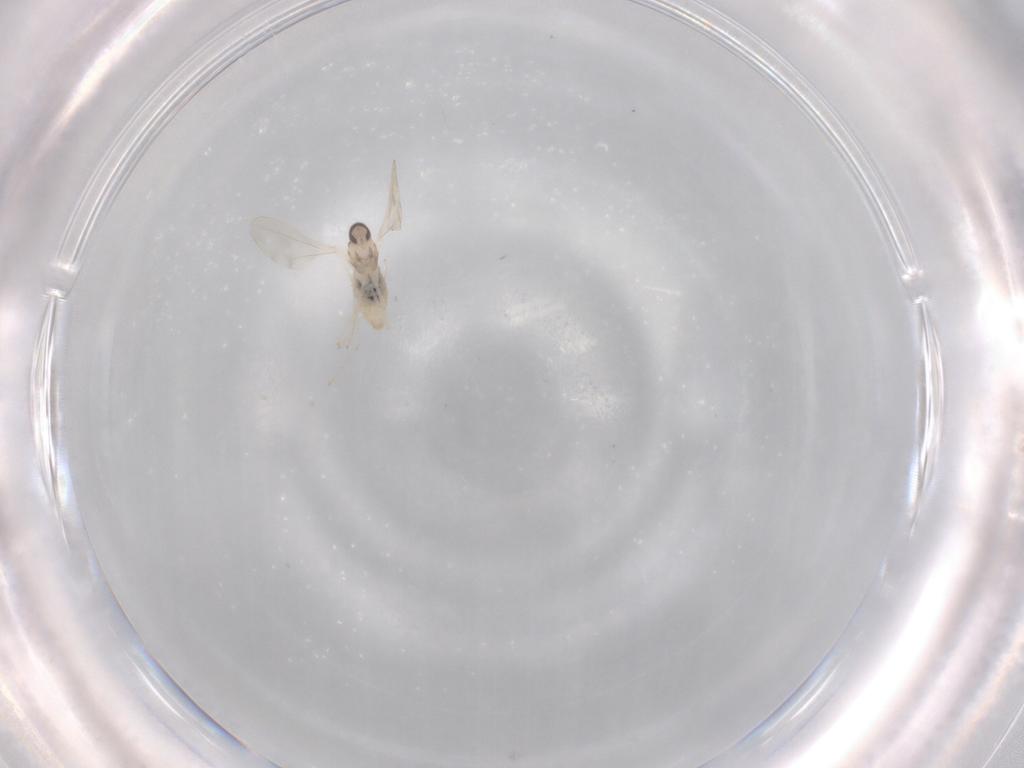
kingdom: Animalia
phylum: Arthropoda
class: Insecta
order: Diptera
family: Cecidomyiidae
